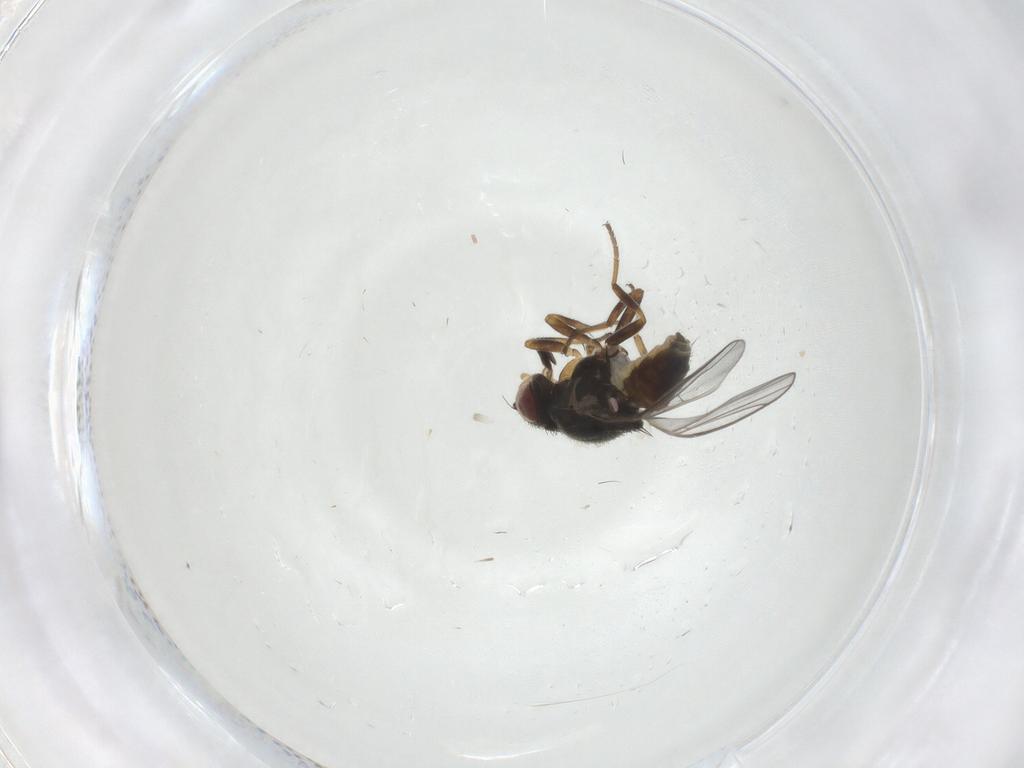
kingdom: Animalia
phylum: Arthropoda
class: Insecta
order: Diptera
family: Chloropidae
